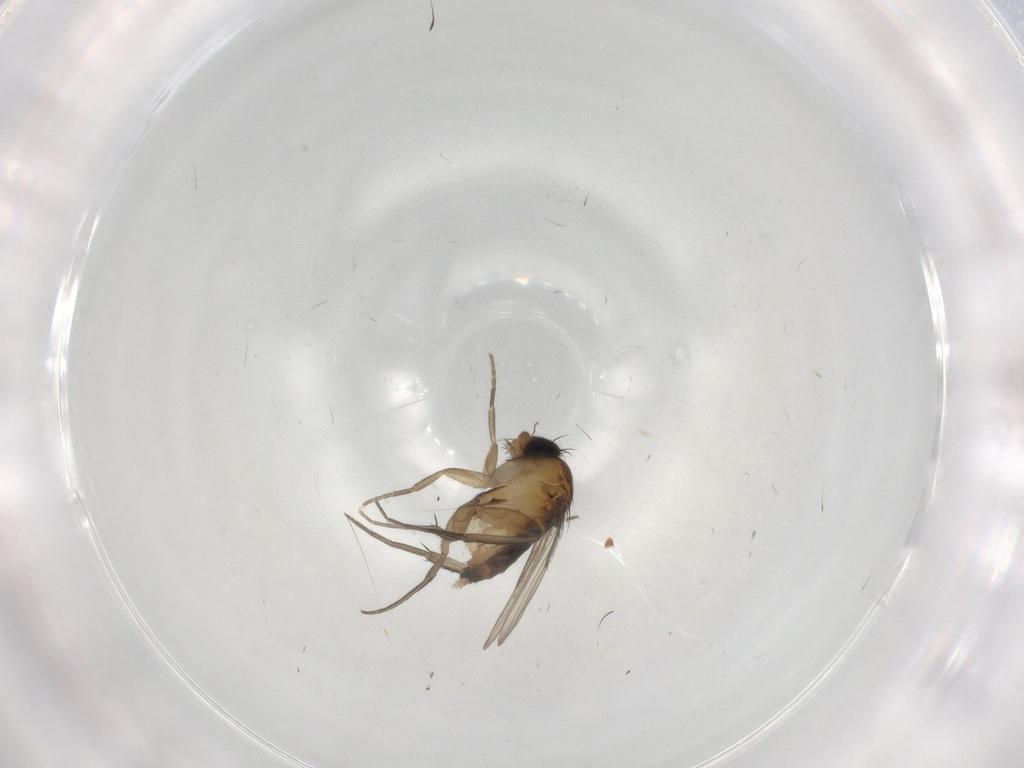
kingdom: Animalia
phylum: Arthropoda
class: Insecta
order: Diptera
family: Phoridae
